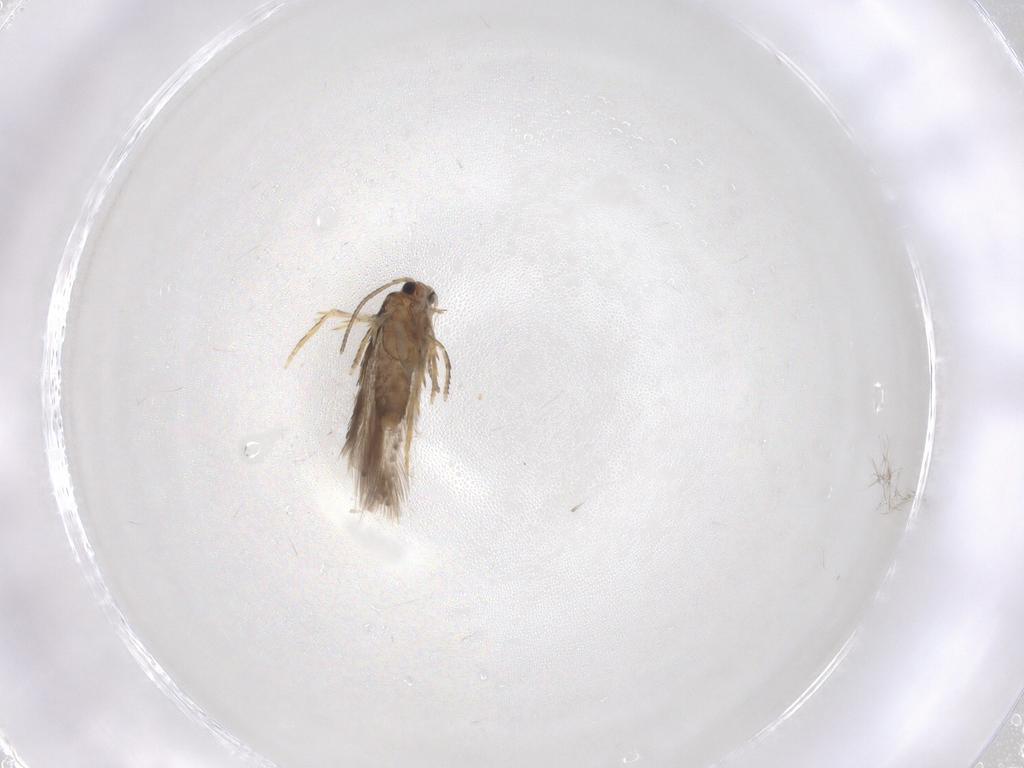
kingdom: Animalia
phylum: Arthropoda
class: Insecta
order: Lepidoptera
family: Nepticulidae
